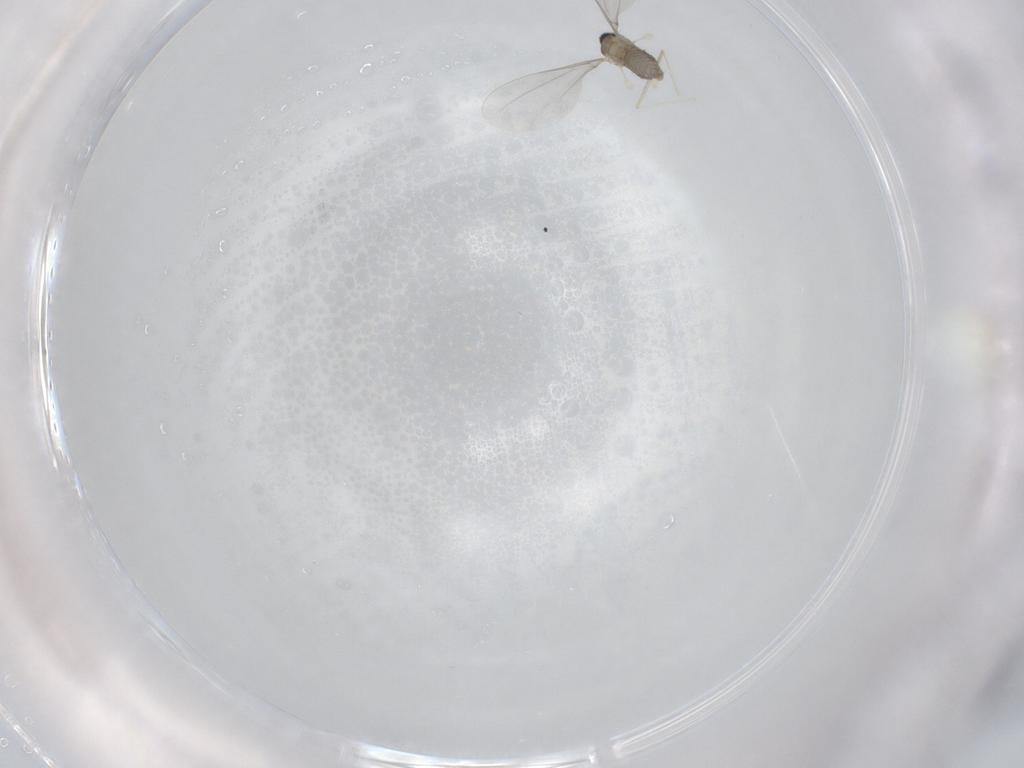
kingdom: Animalia
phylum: Arthropoda
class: Insecta
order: Diptera
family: Cecidomyiidae
